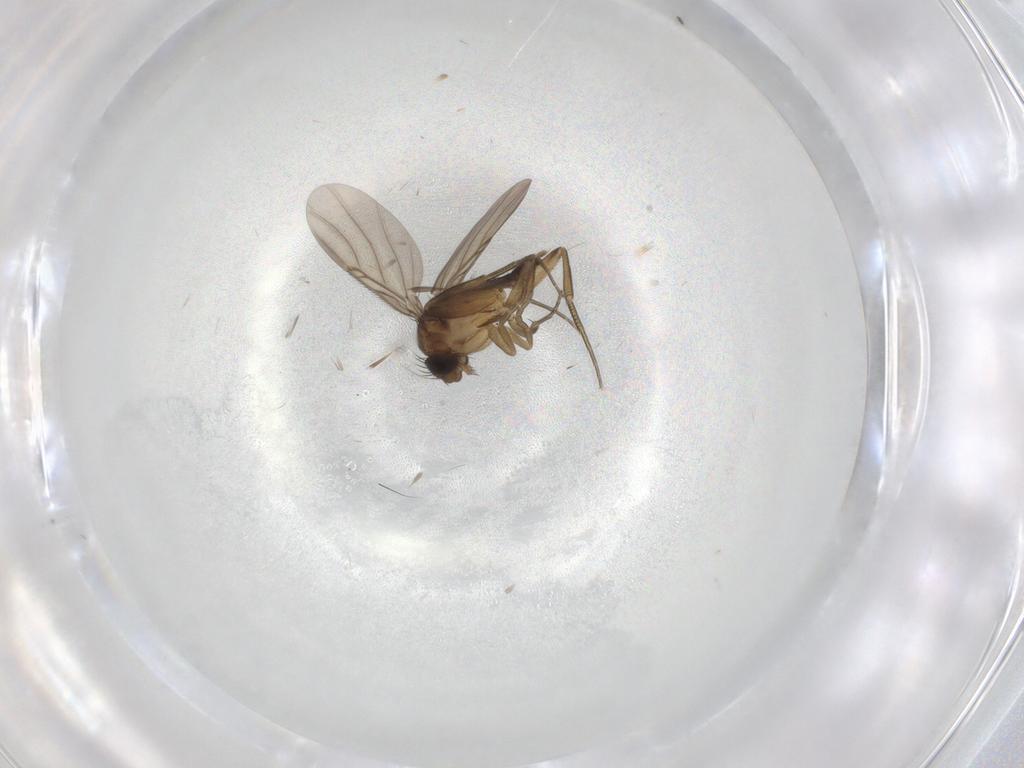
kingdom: Animalia
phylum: Arthropoda
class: Insecta
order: Diptera
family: Phoridae
